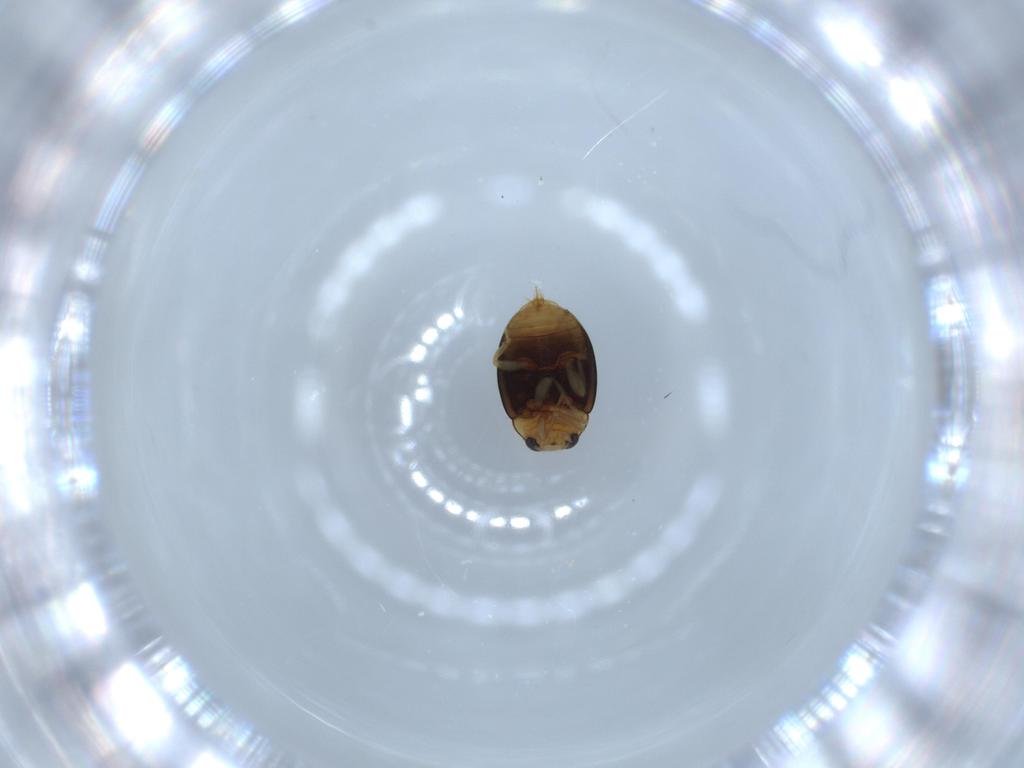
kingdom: Animalia
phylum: Arthropoda
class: Insecta
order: Coleoptera
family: Coccinellidae
